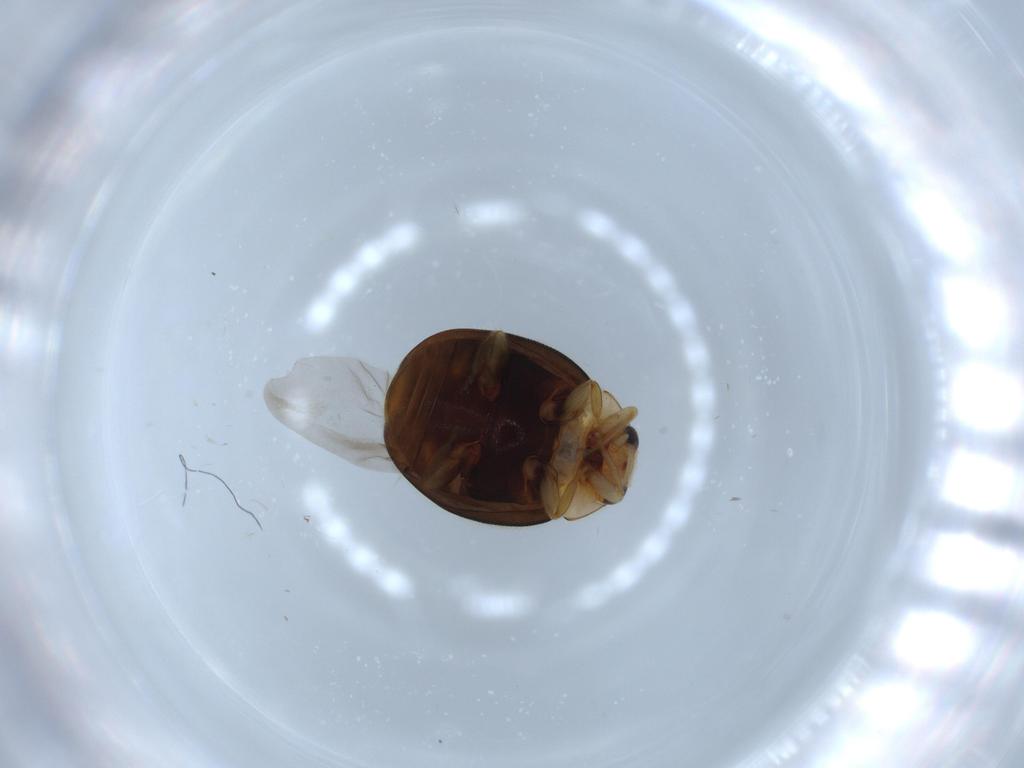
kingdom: Animalia
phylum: Arthropoda
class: Insecta
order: Coleoptera
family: Coccinellidae
